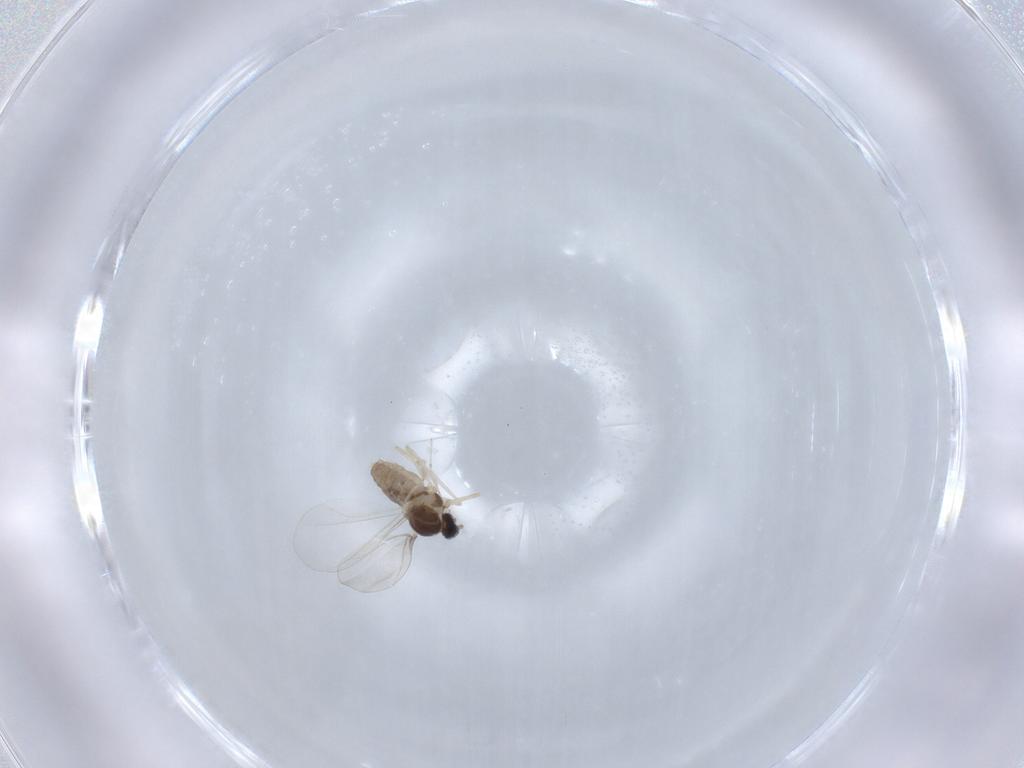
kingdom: Animalia
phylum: Arthropoda
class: Insecta
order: Diptera
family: Cecidomyiidae
